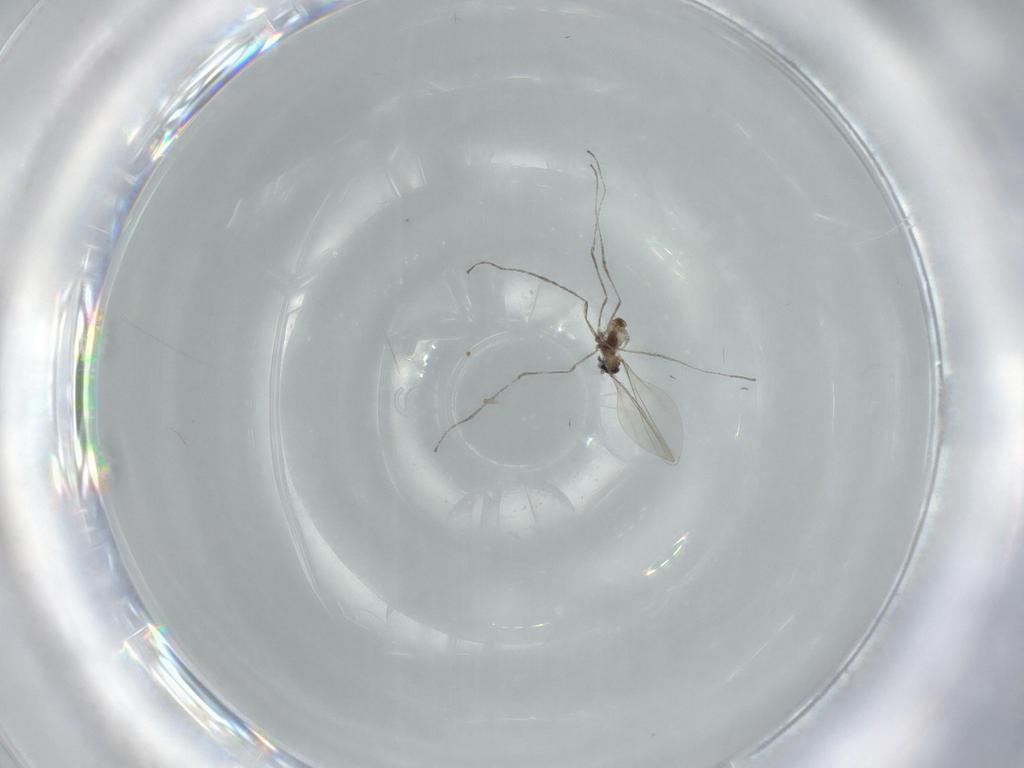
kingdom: Animalia
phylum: Arthropoda
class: Insecta
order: Diptera
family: Cecidomyiidae
